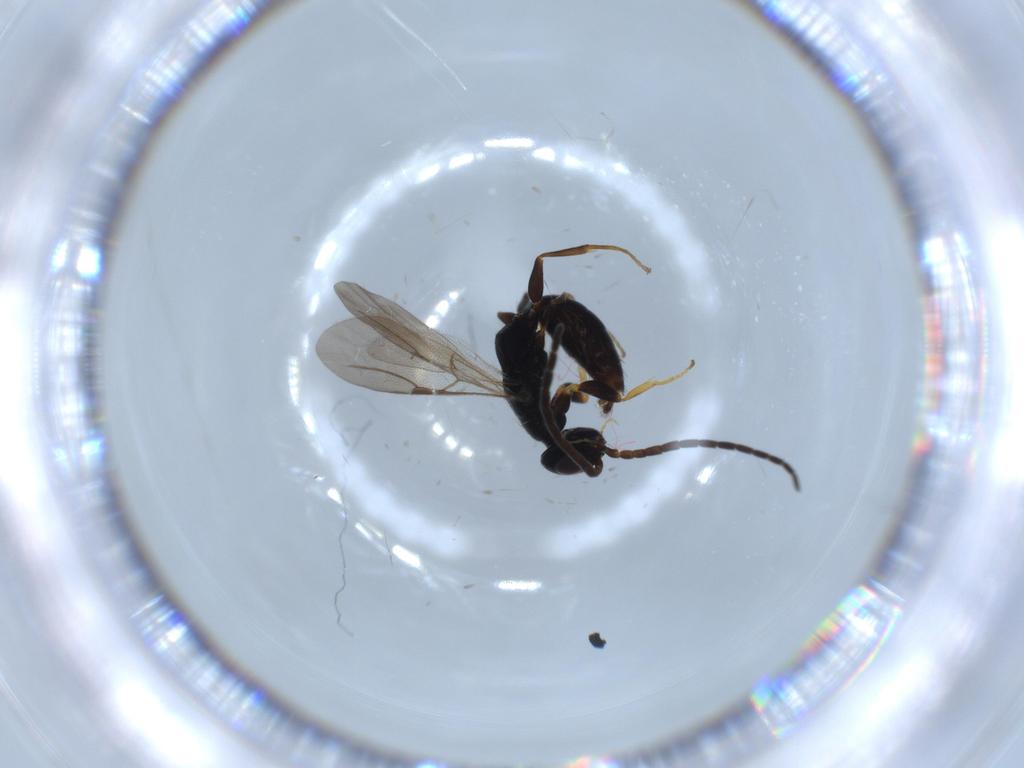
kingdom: Animalia
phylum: Arthropoda
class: Insecta
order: Hymenoptera
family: Bethylidae
